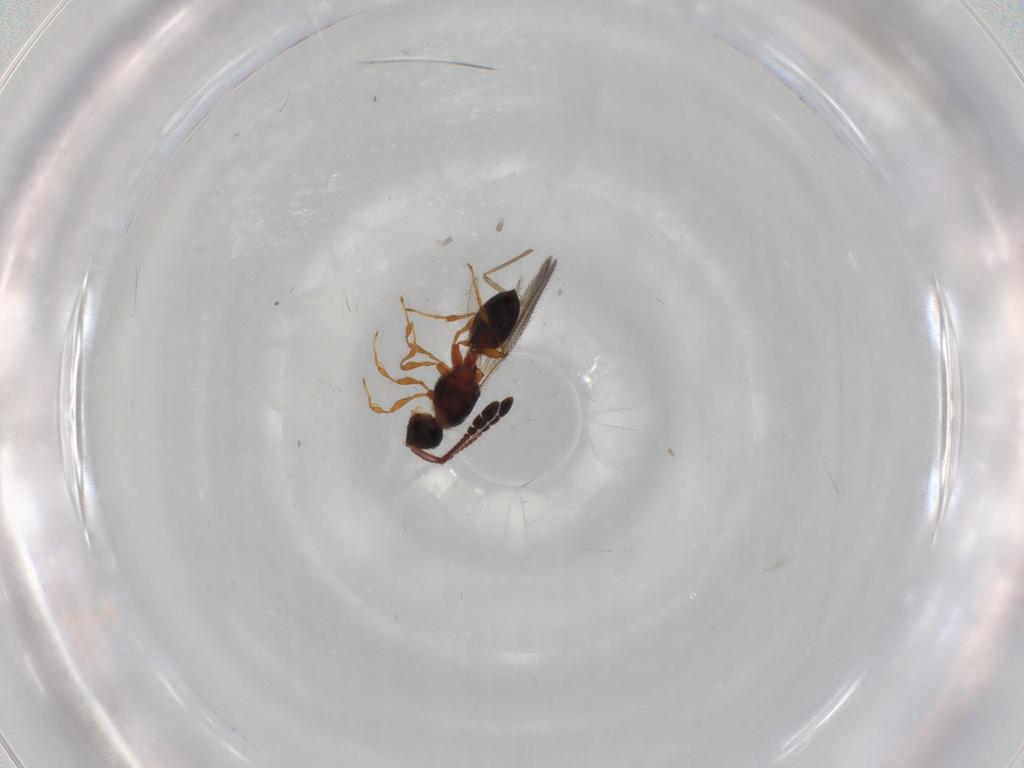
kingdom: Animalia
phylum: Arthropoda
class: Insecta
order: Hymenoptera
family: Diapriidae
